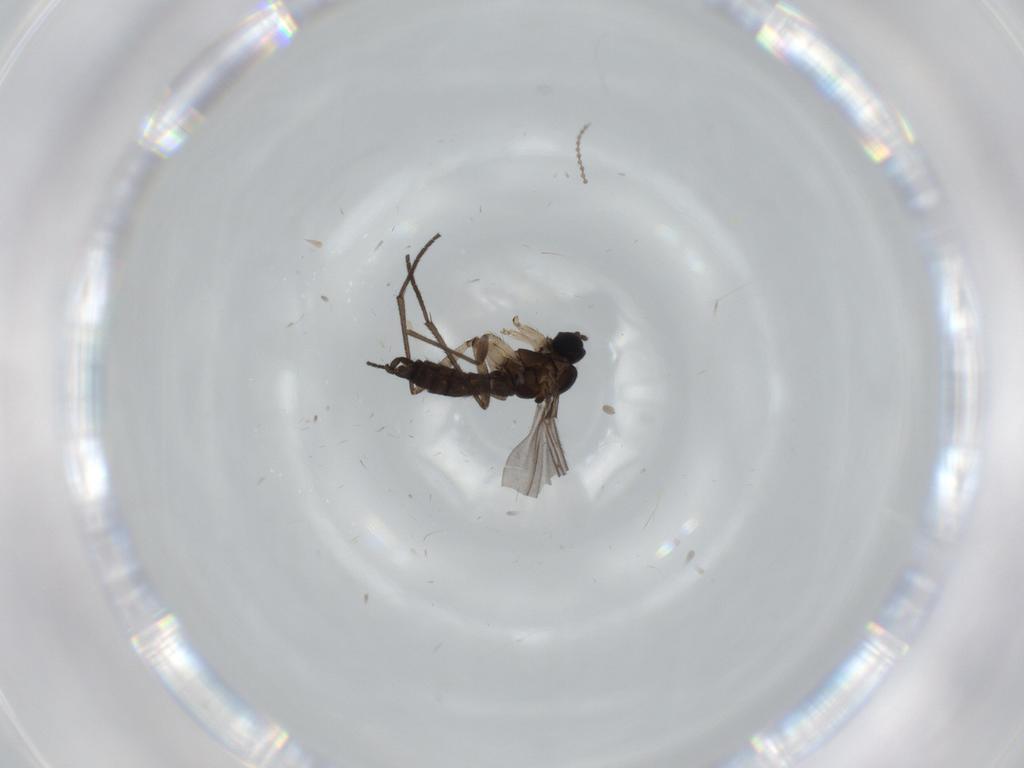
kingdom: Animalia
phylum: Arthropoda
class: Insecta
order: Diptera
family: Sciaridae
